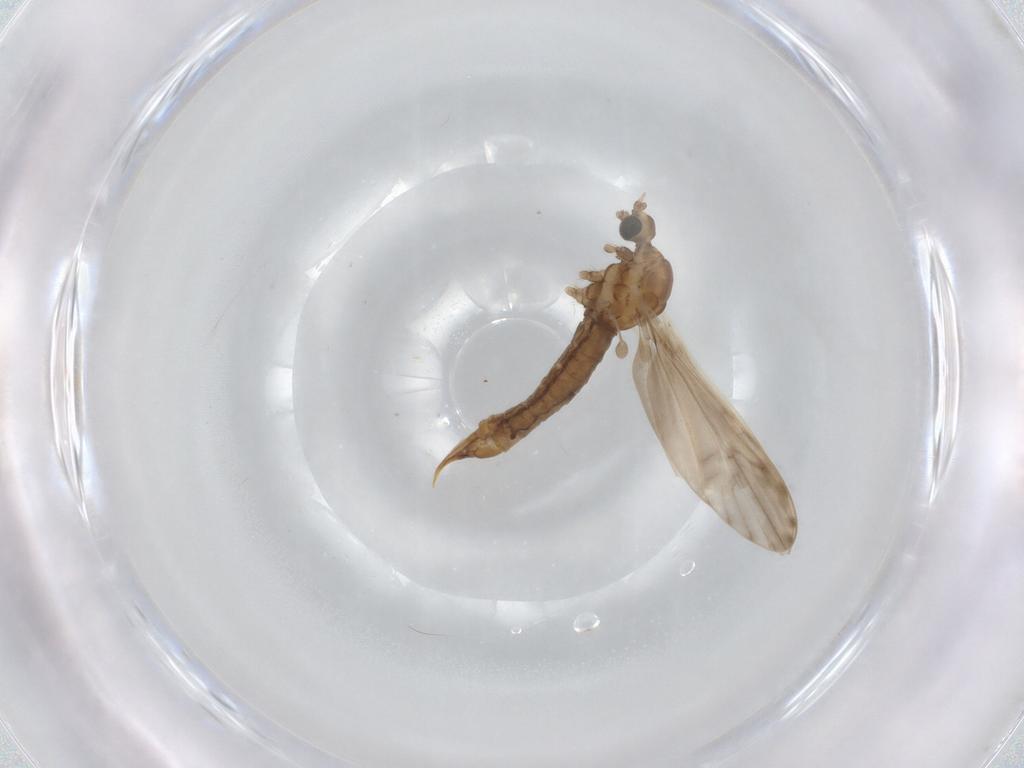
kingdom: Animalia
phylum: Arthropoda
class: Insecta
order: Diptera
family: Limoniidae
